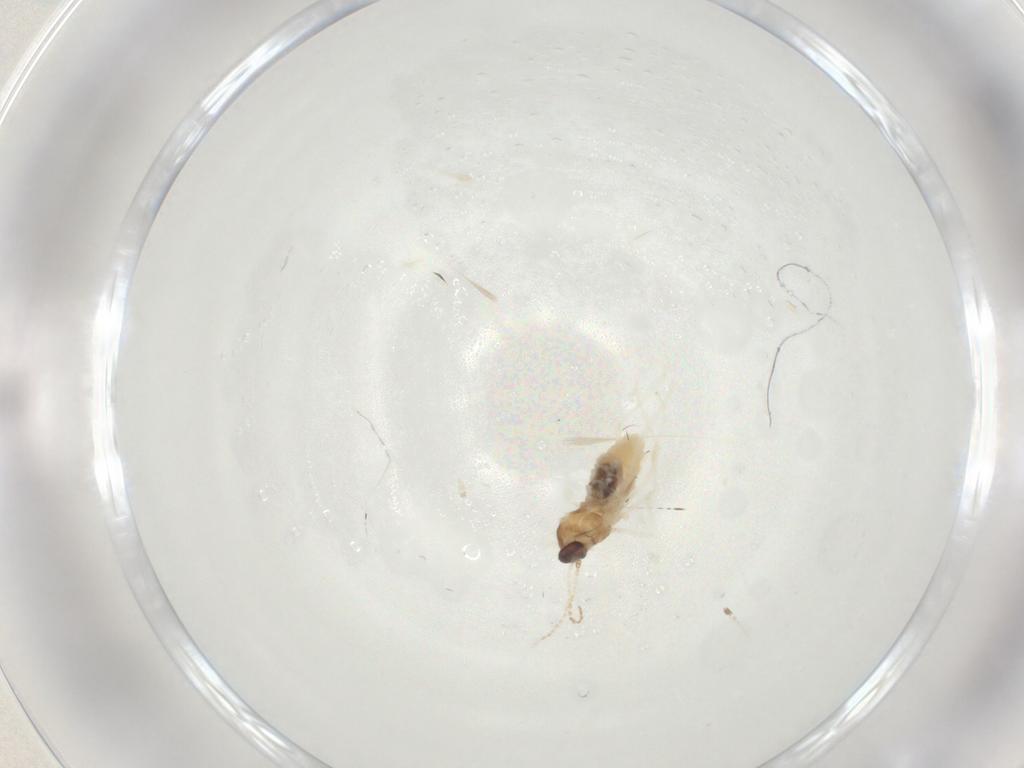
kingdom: Animalia
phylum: Arthropoda
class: Insecta
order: Diptera
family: Cecidomyiidae
